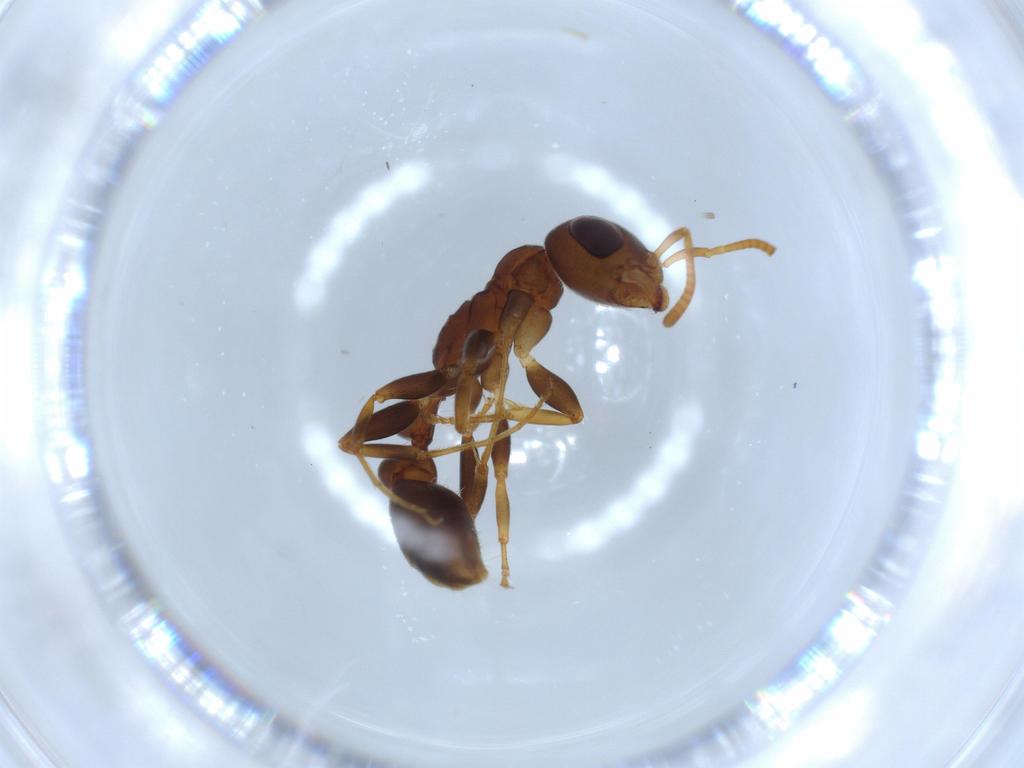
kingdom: Animalia
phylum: Arthropoda
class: Insecta
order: Hymenoptera
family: Formicidae
